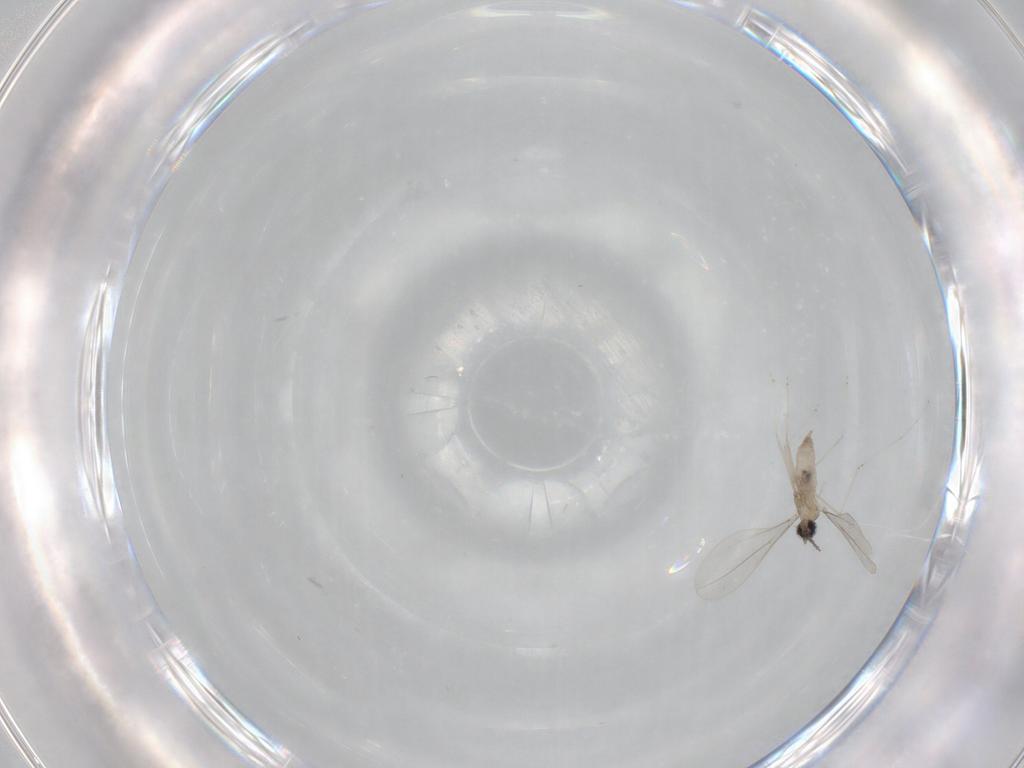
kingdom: Animalia
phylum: Arthropoda
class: Insecta
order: Diptera
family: Cecidomyiidae
